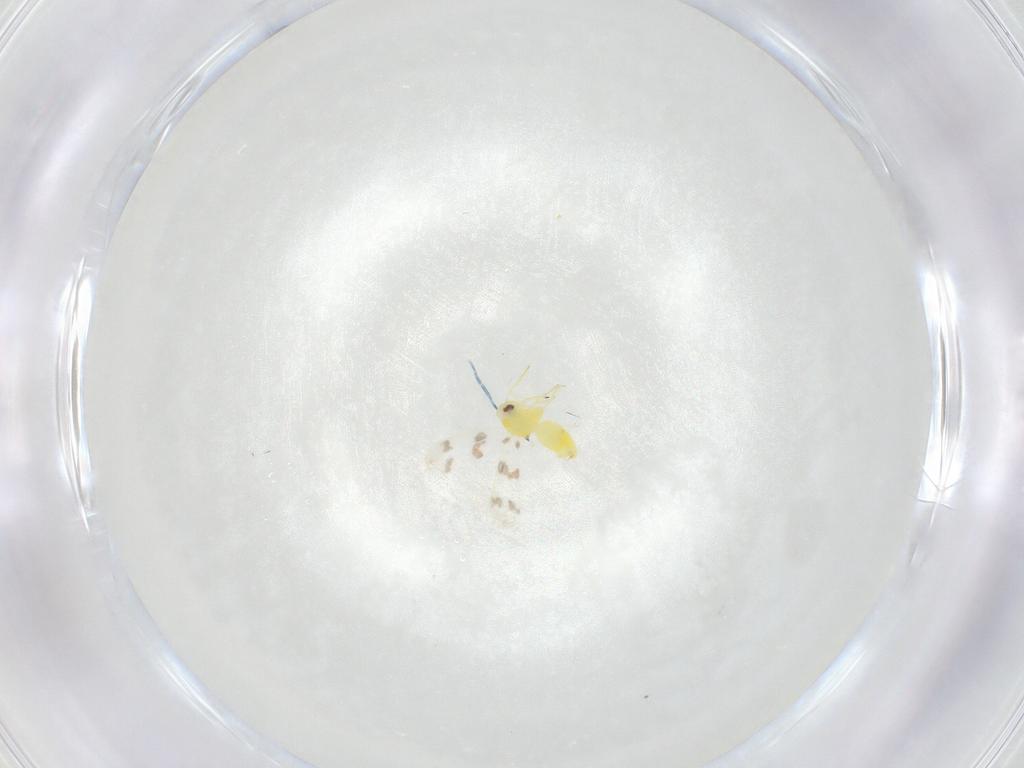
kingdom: Animalia
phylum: Arthropoda
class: Insecta
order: Hemiptera
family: Aleyrodidae
